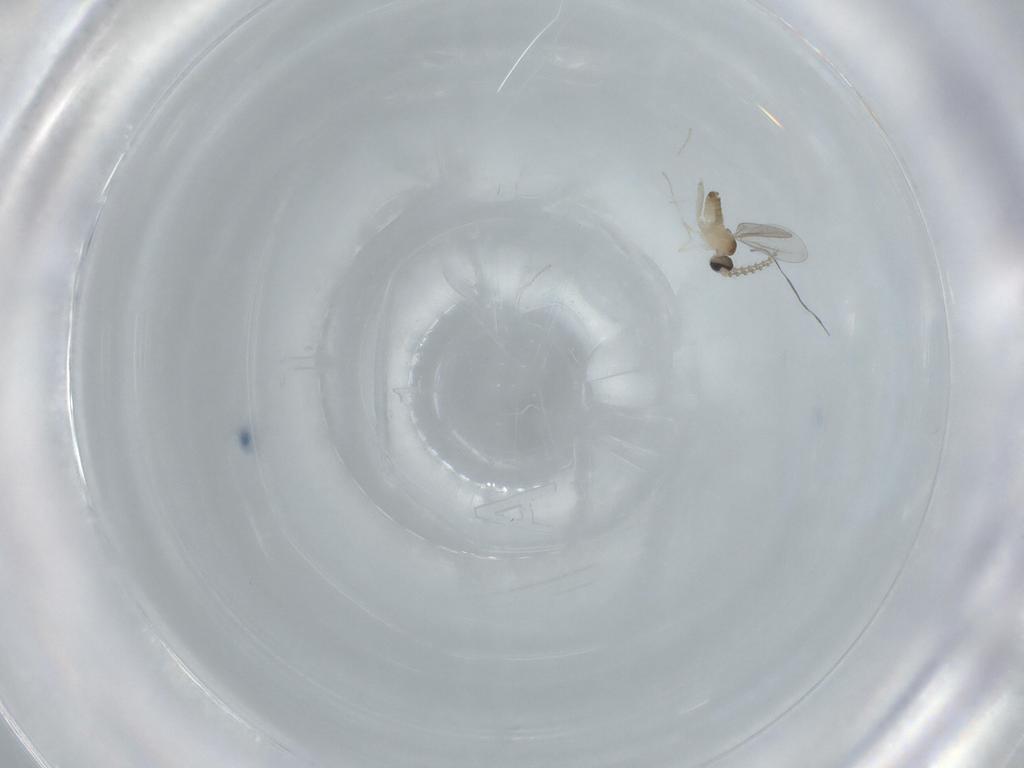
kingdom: Animalia
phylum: Arthropoda
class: Insecta
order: Diptera
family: Cecidomyiidae
